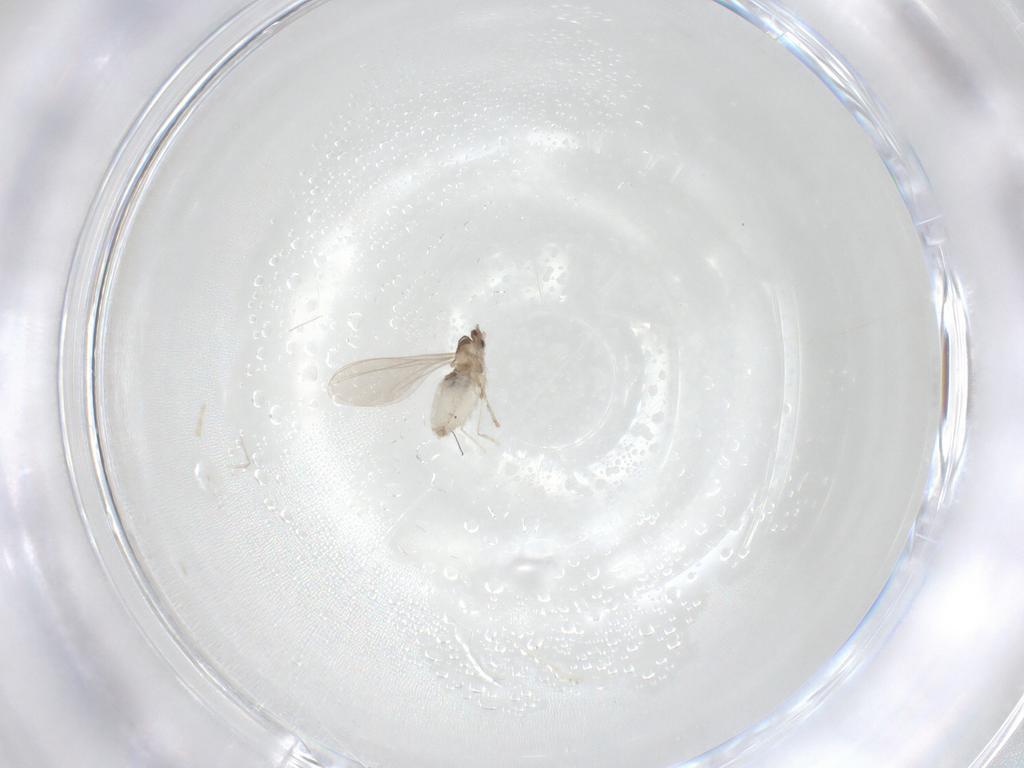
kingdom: Animalia
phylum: Arthropoda
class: Insecta
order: Diptera
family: Cecidomyiidae
